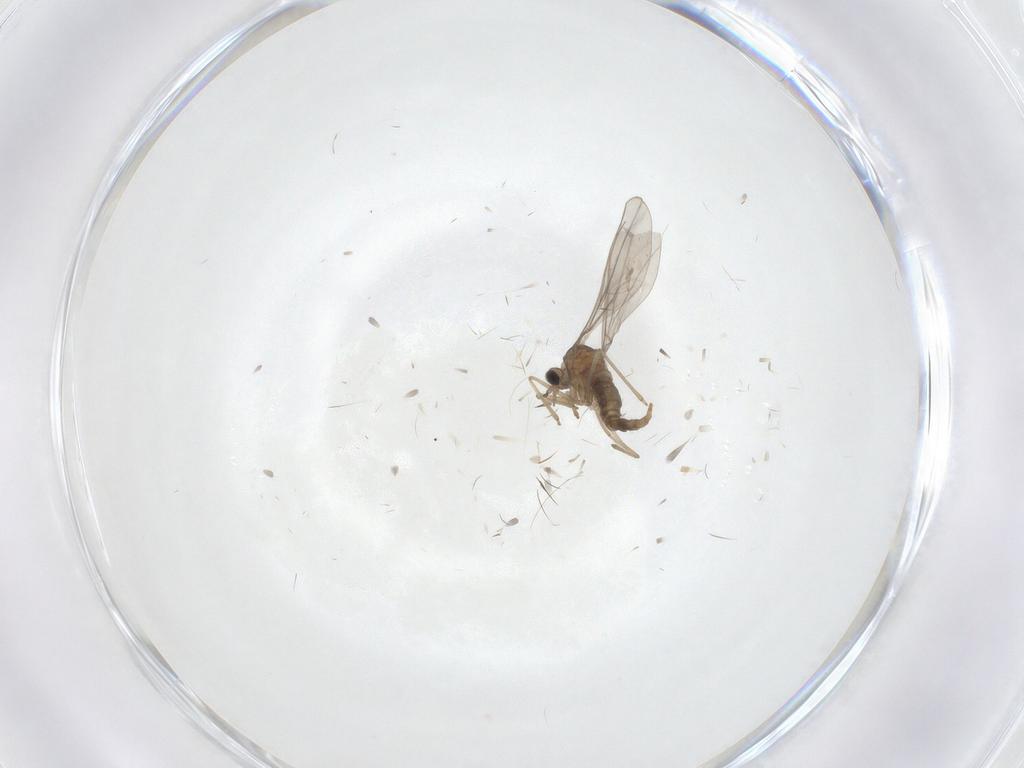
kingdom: Animalia
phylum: Arthropoda
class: Insecta
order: Diptera
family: Cecidomyiidae
